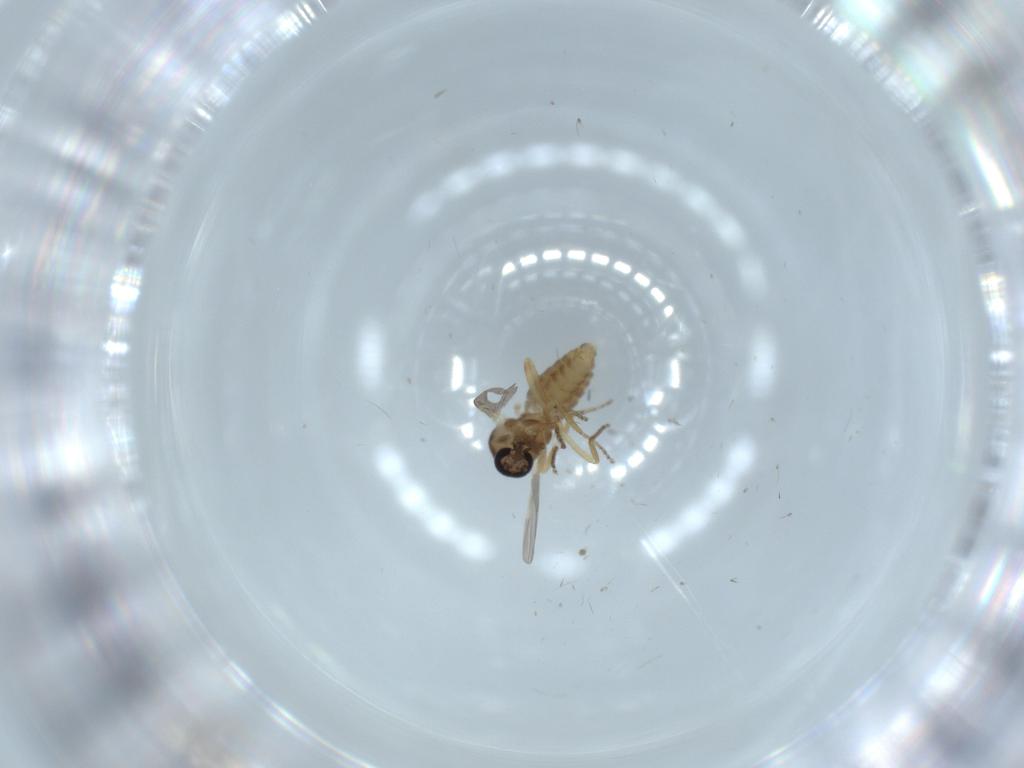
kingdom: Animalia
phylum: Arthropoda
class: Insecta
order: Diptera
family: Ceratopogonidae
